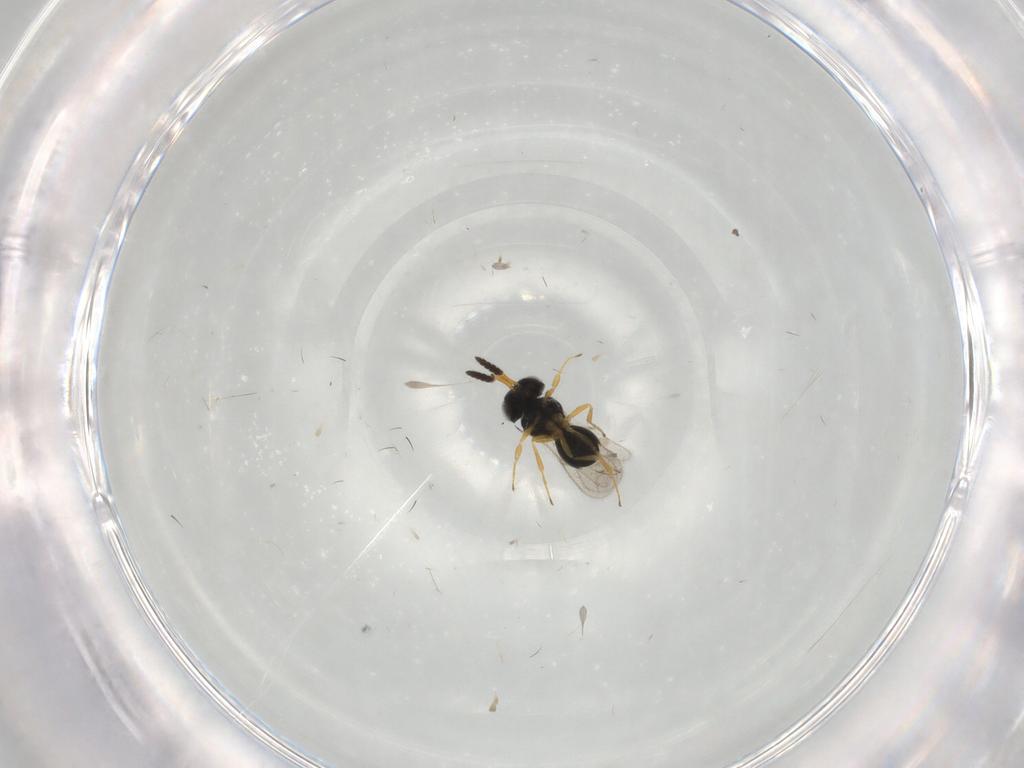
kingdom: Animalia
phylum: Arthropoda
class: Insecta
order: Hymenoptera
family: Scelionidae
